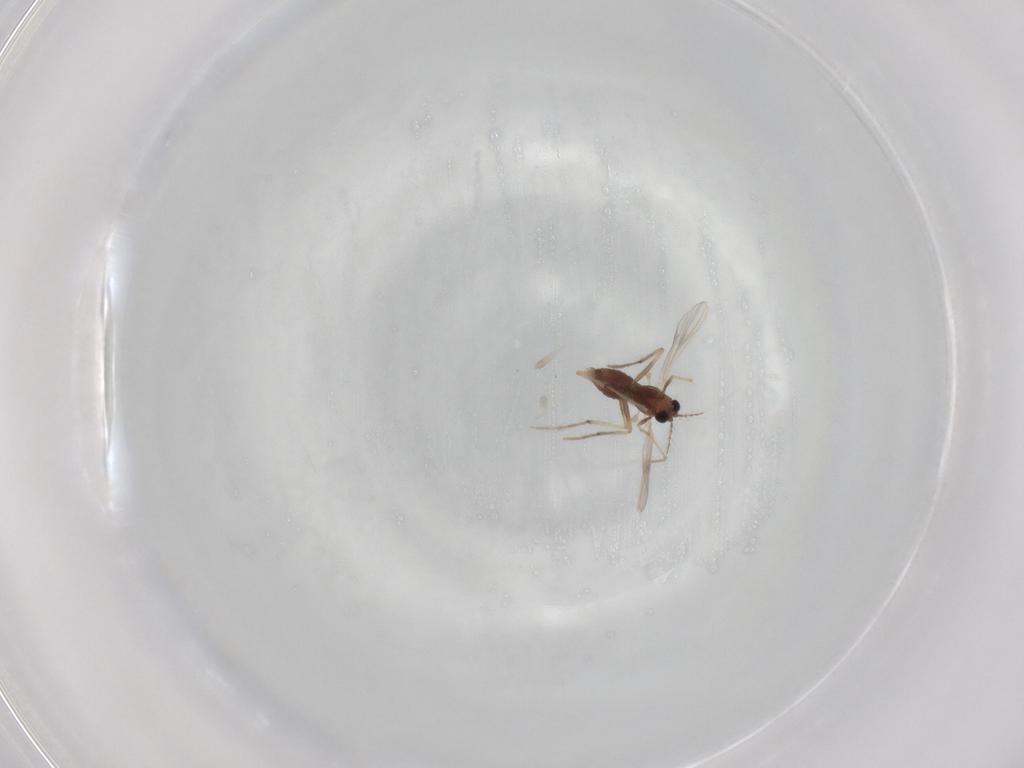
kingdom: Animalia
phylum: Arthropoda
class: Insecta
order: Diptera
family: Chironomidae
